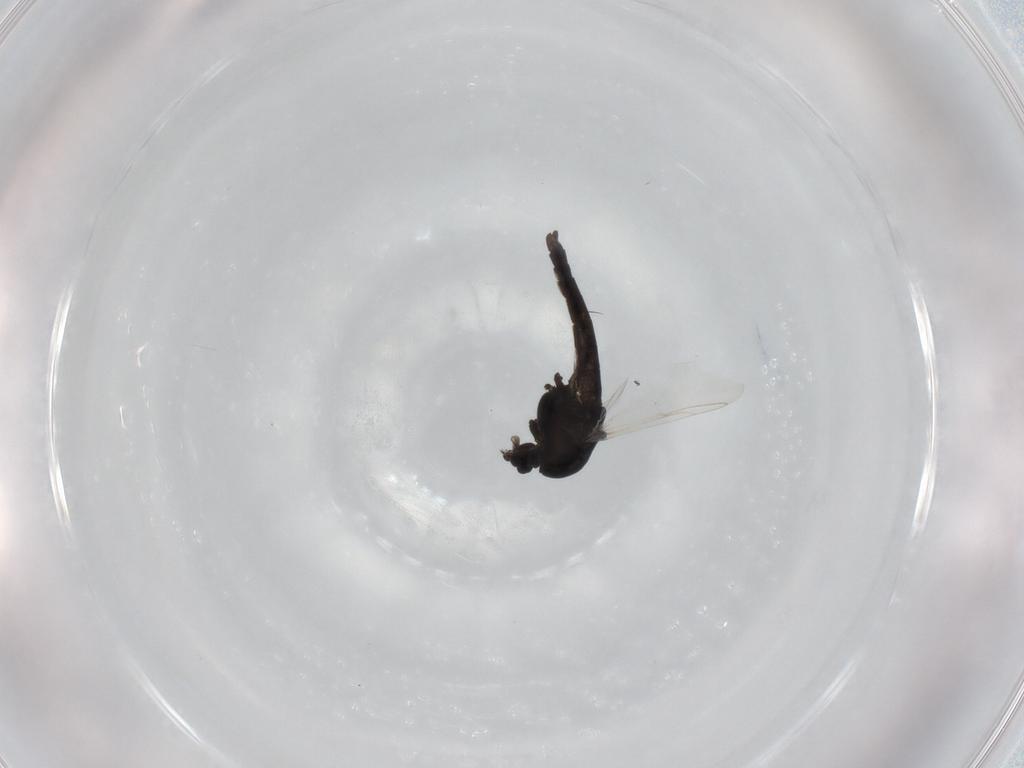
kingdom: Animalia
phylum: Arthropoda
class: Insecta
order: Diptera
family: Chironomidae
